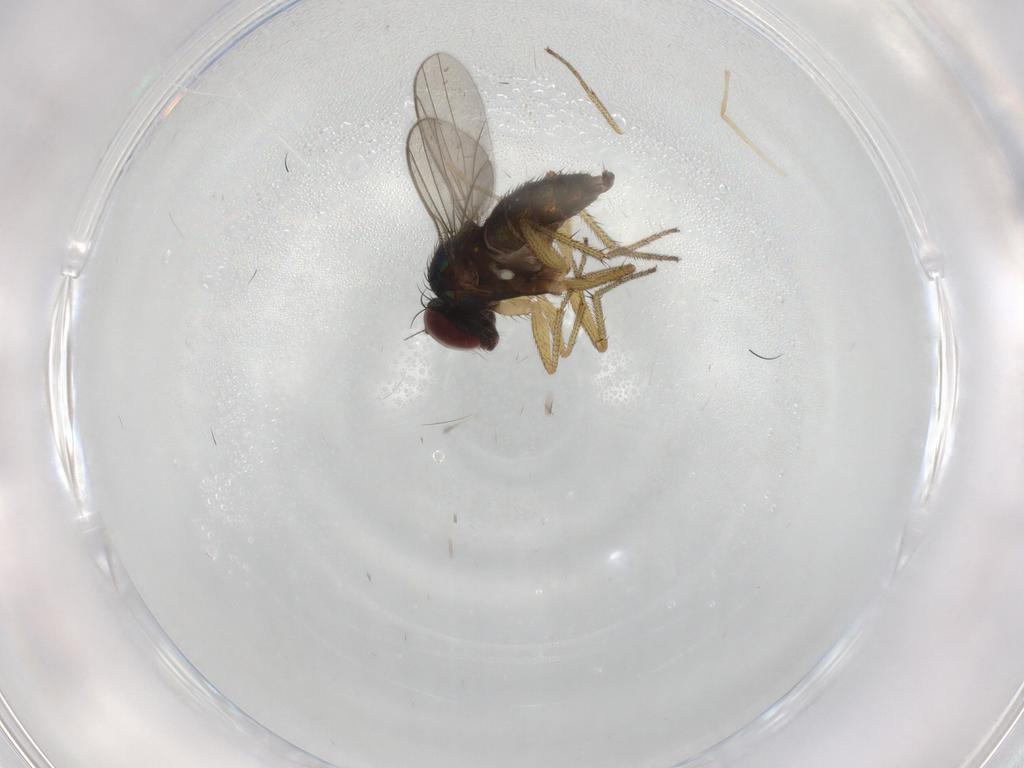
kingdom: Animalia
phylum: Arthropoda
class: Insecta
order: Diptera
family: Chironomidae
